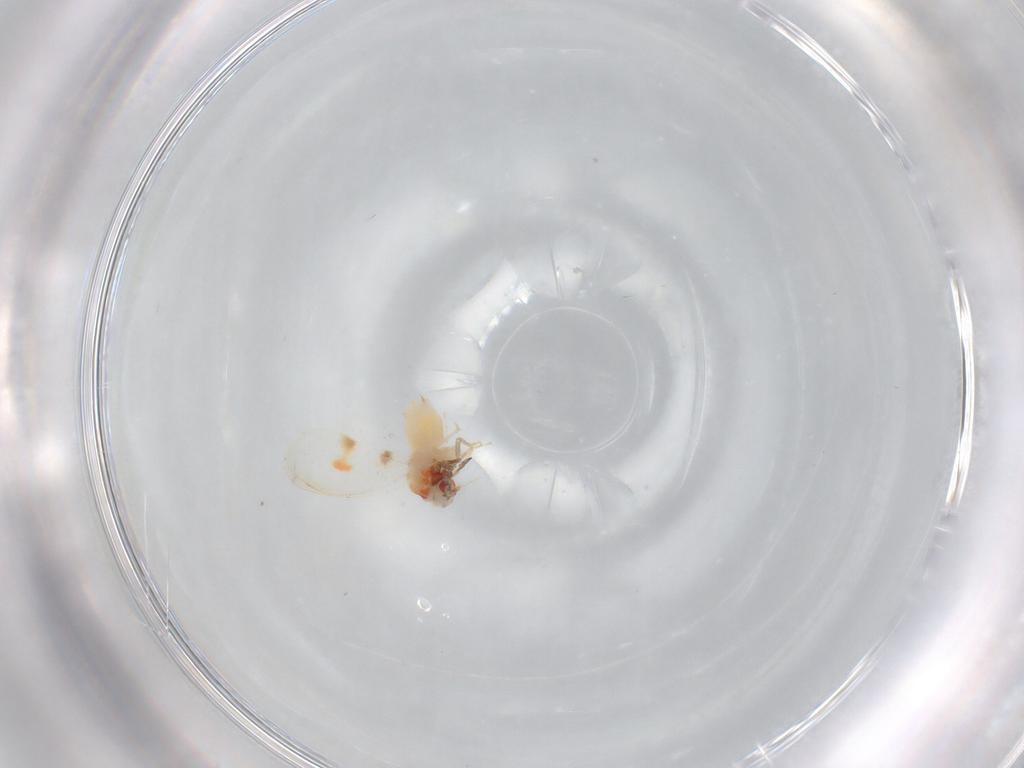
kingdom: Animalia
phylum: Arthropoda
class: Insecta
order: Hemiptera
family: Aleyrodidae
